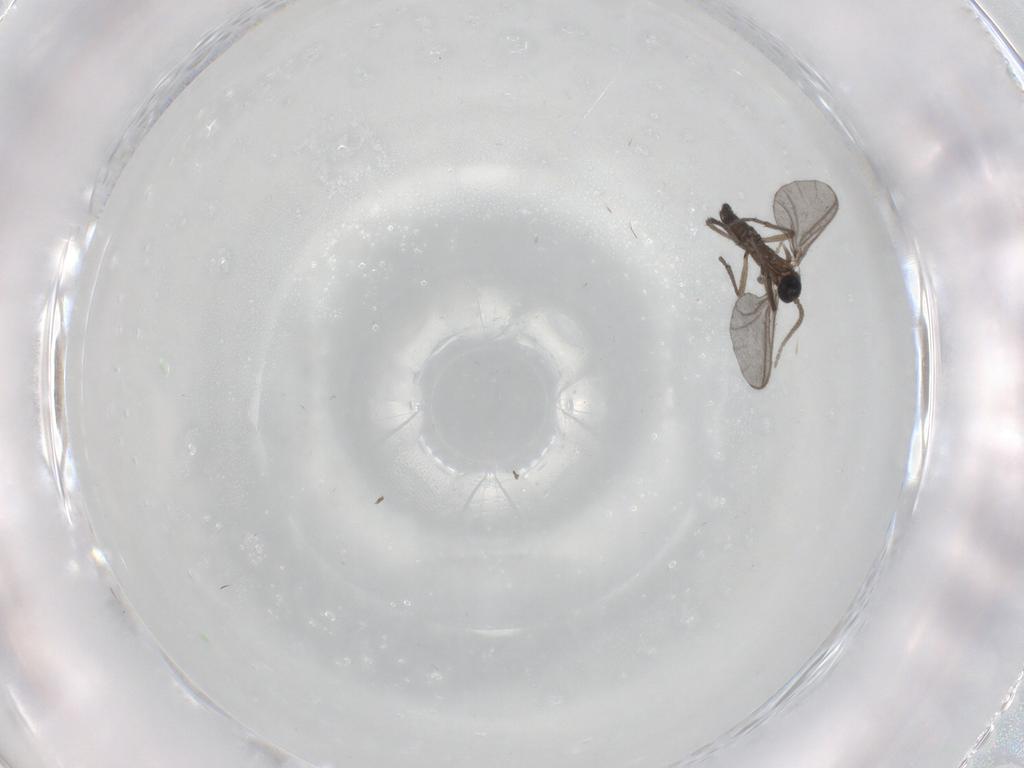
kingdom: Animalia
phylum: Arthropoda
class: Insecta
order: Diptera
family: Sciaridae
